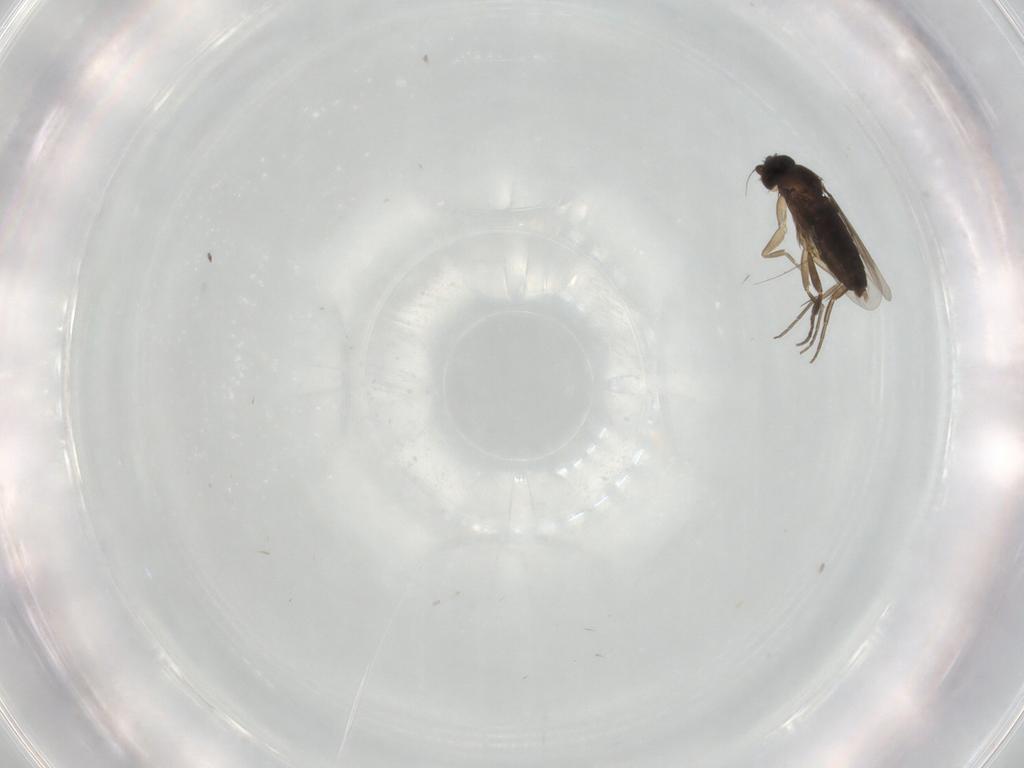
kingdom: Animalia
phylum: Arthropoda
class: Insecta
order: Diptera
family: Phoridae
